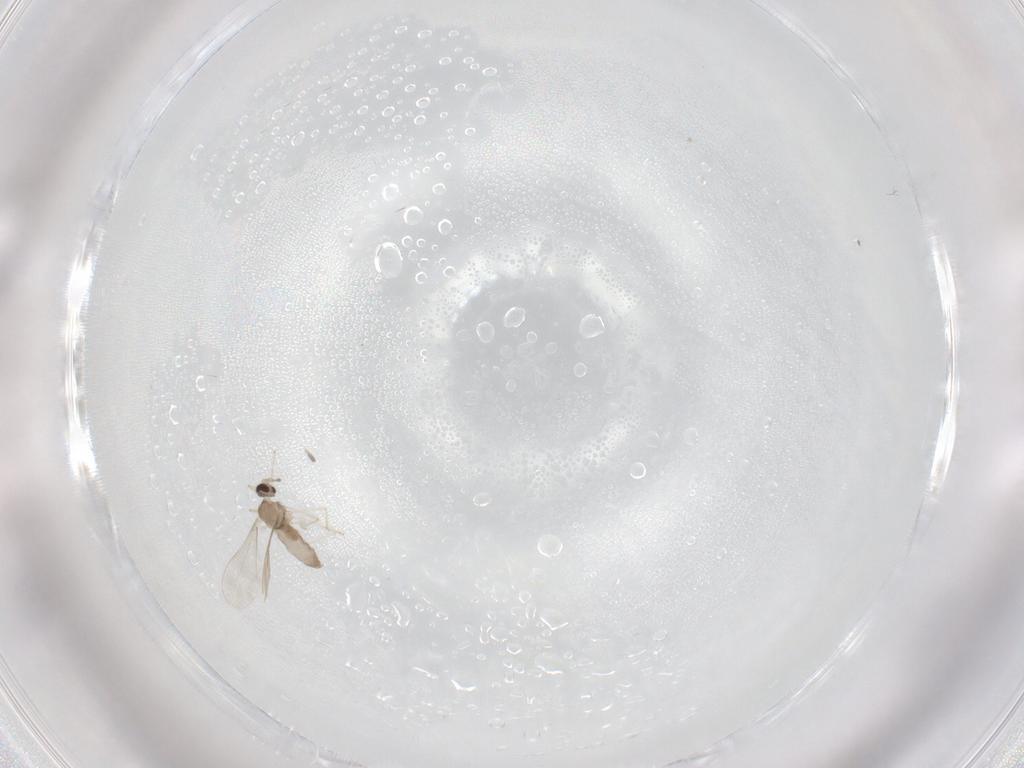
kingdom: Animalia
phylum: Arthropoda
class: Insecta
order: Diptera
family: Cecidomyiidae
